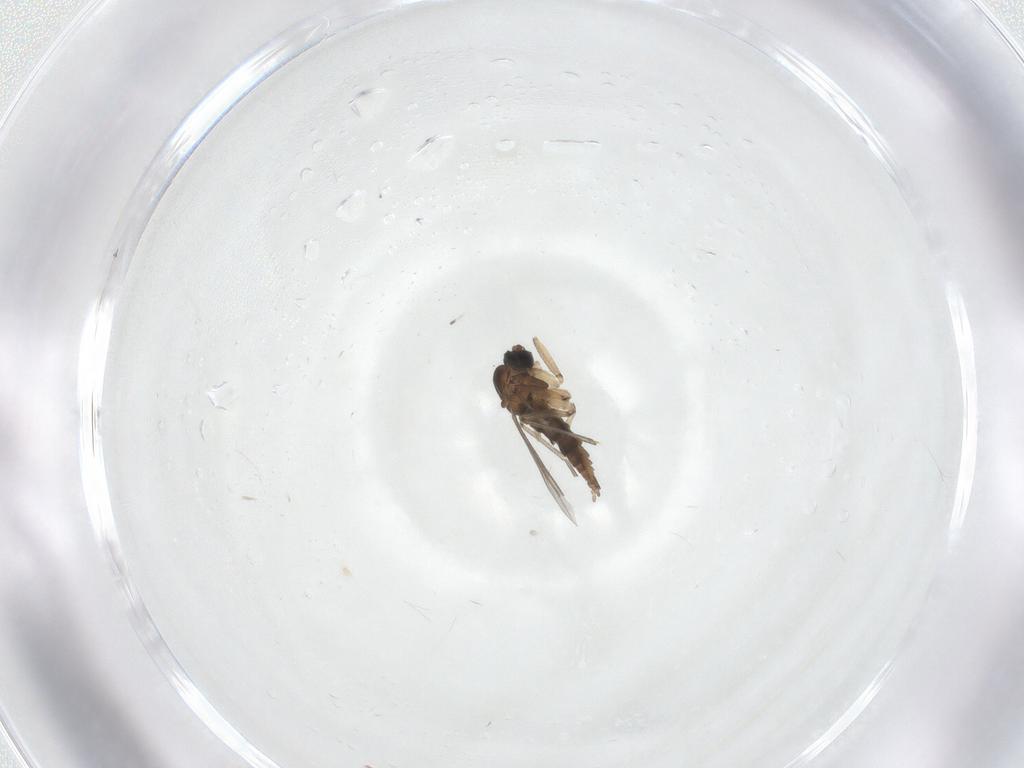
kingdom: Animalia
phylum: Arthropoda
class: Insecta
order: Diptera
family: Sciaridae
